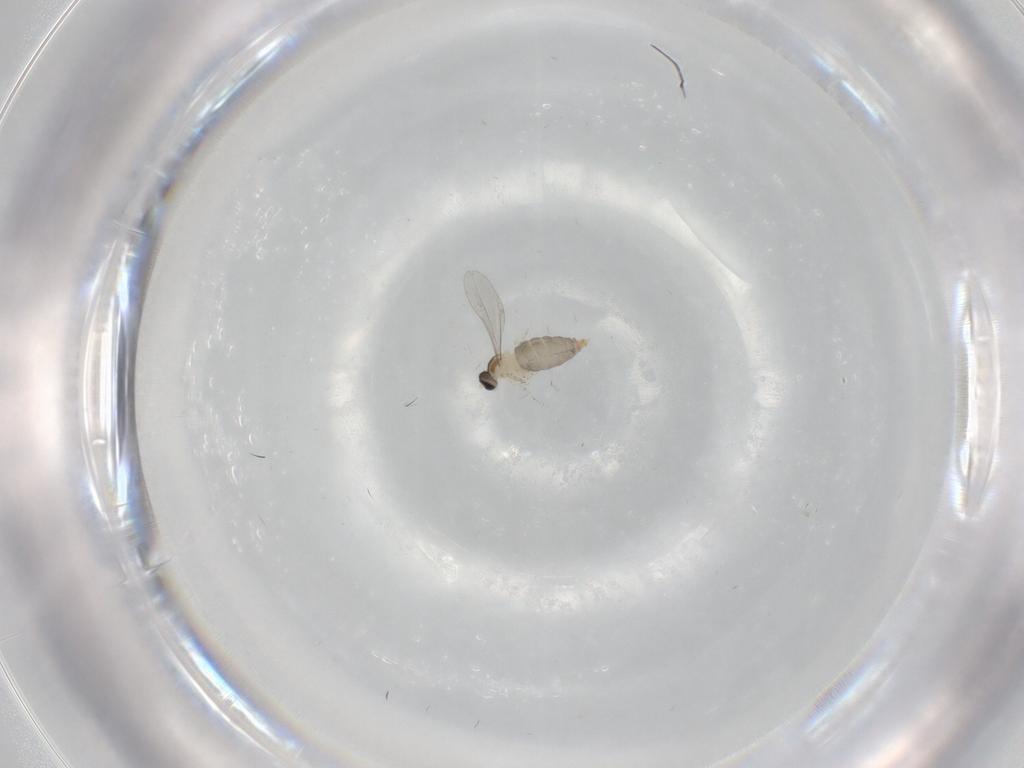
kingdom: Animalia
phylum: Arthropoda
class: Insecta
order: Diptera
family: Cecidomyiidae
